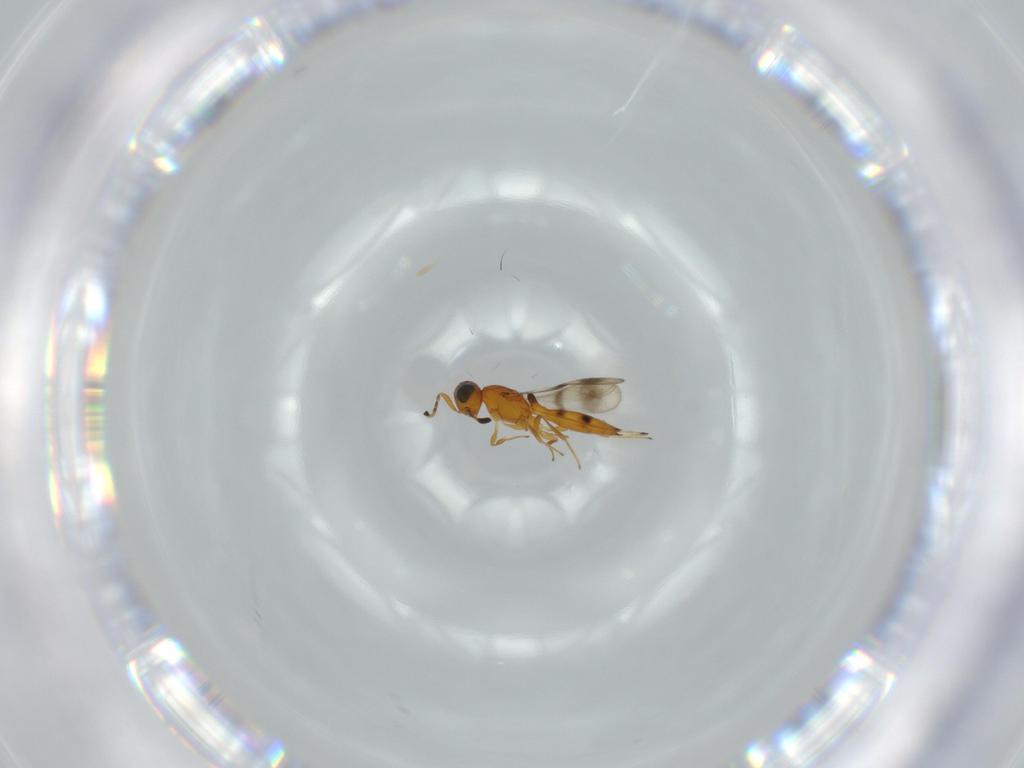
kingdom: Animalia
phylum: Arthropoda
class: Insecta
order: Hymenoptera
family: Scelionidae
